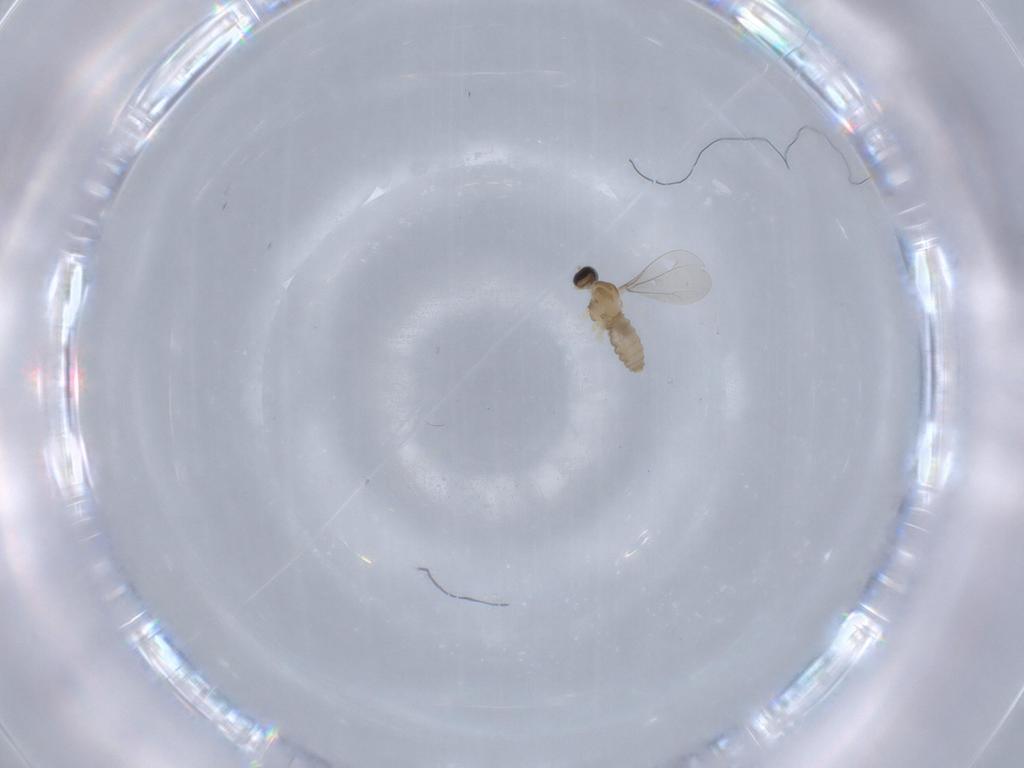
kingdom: Animalia
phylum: Arthropoda
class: Insecta
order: Diptera
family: Cecidomyiidae
